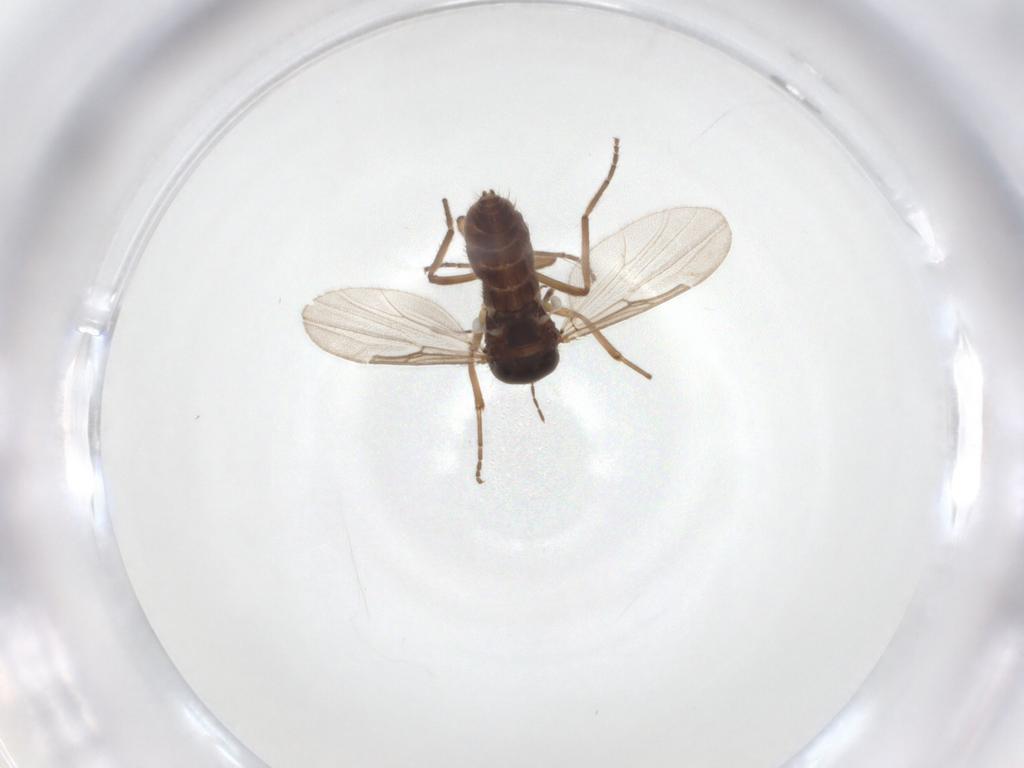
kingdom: Animalia
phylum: Arthropoda
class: Insecta
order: Diptera
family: Ceratopogonidae
